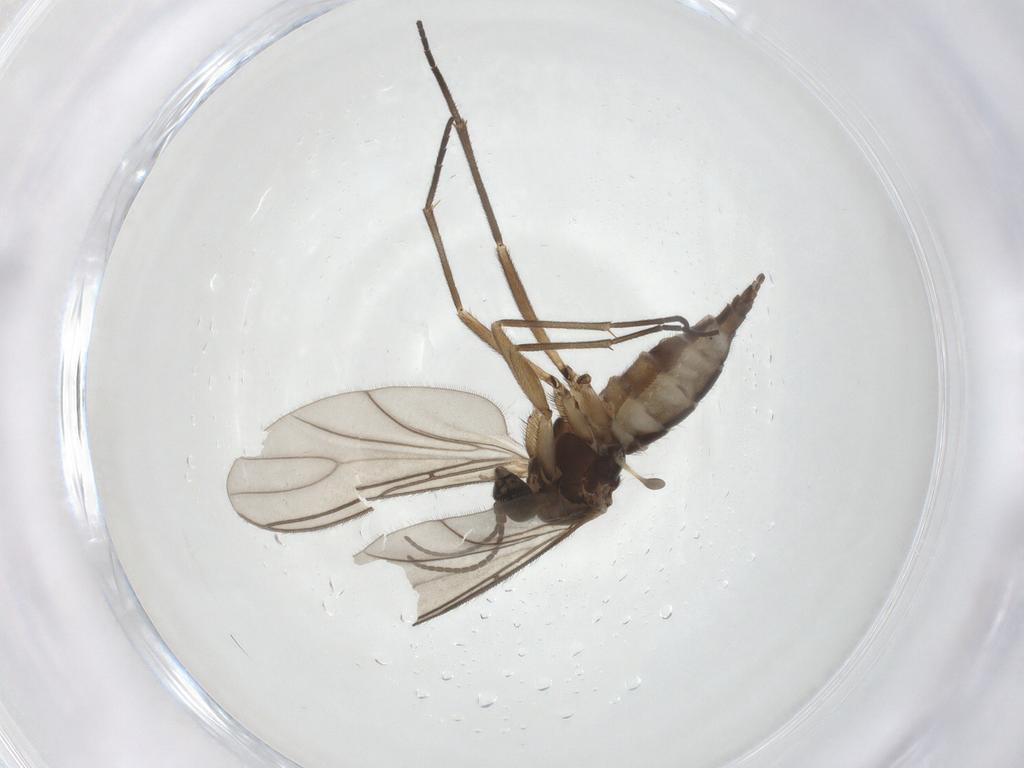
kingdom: Animalia
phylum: Arthropoda
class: Insecta
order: Diptera
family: Sciaridae
